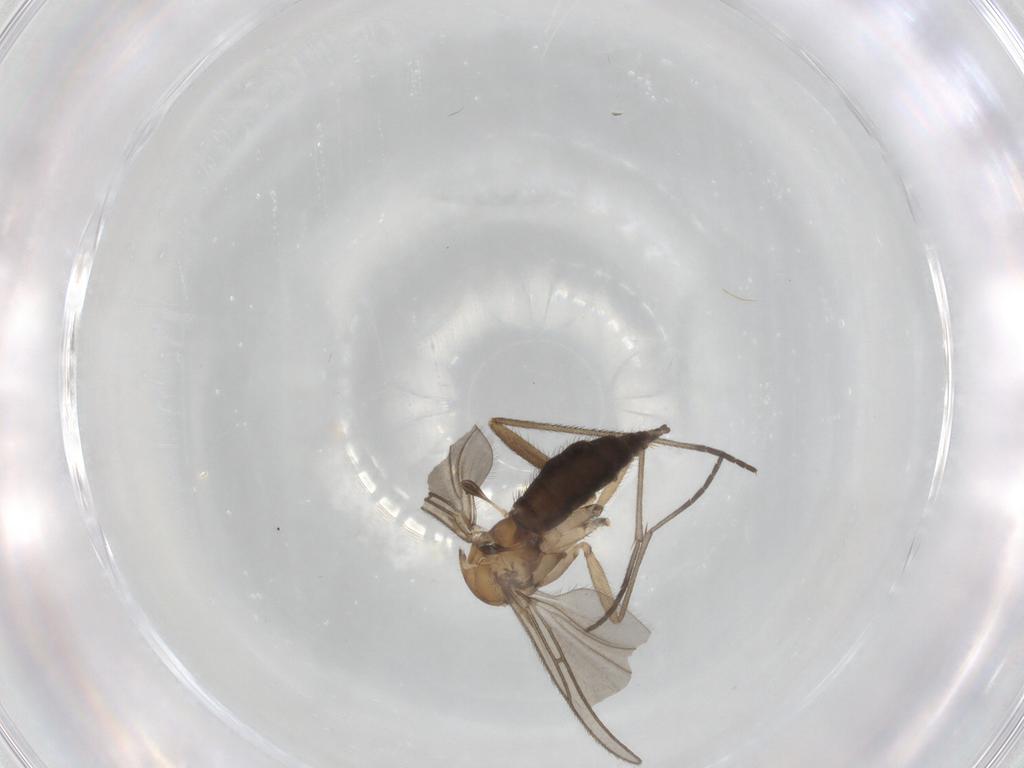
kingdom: Animalia
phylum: Arthropoda
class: Insecta
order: Diptera
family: Sciaridae
